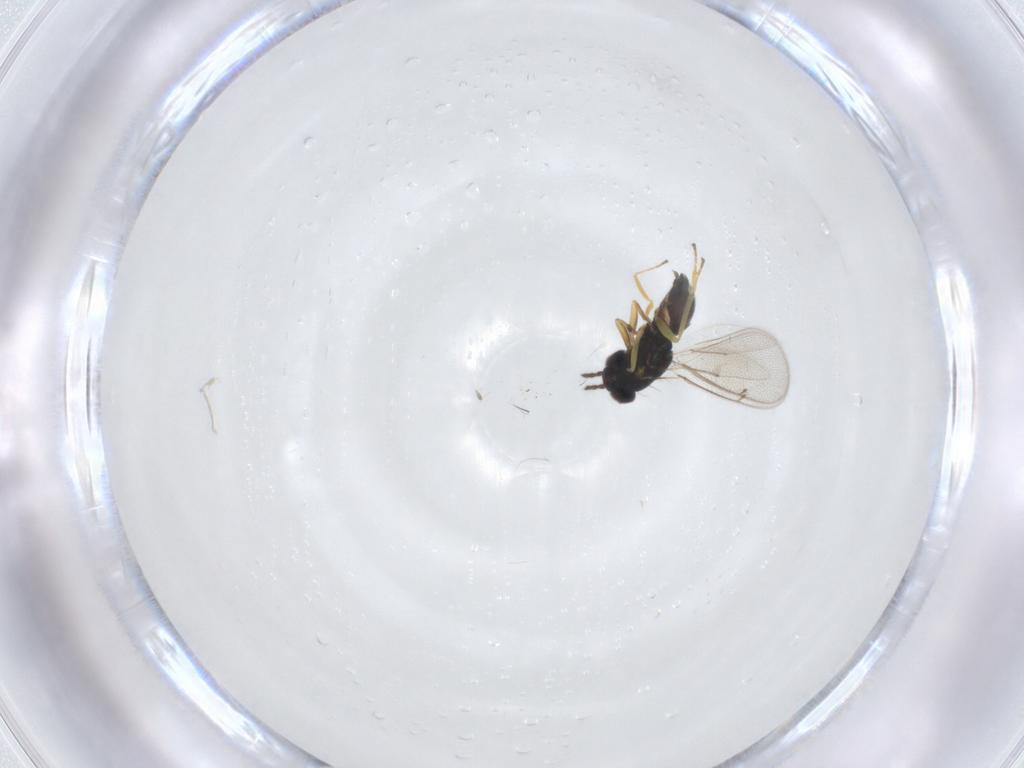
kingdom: Animalia
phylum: Arthropoda
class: Insecta
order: Hymenoptera
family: Eulophidae
